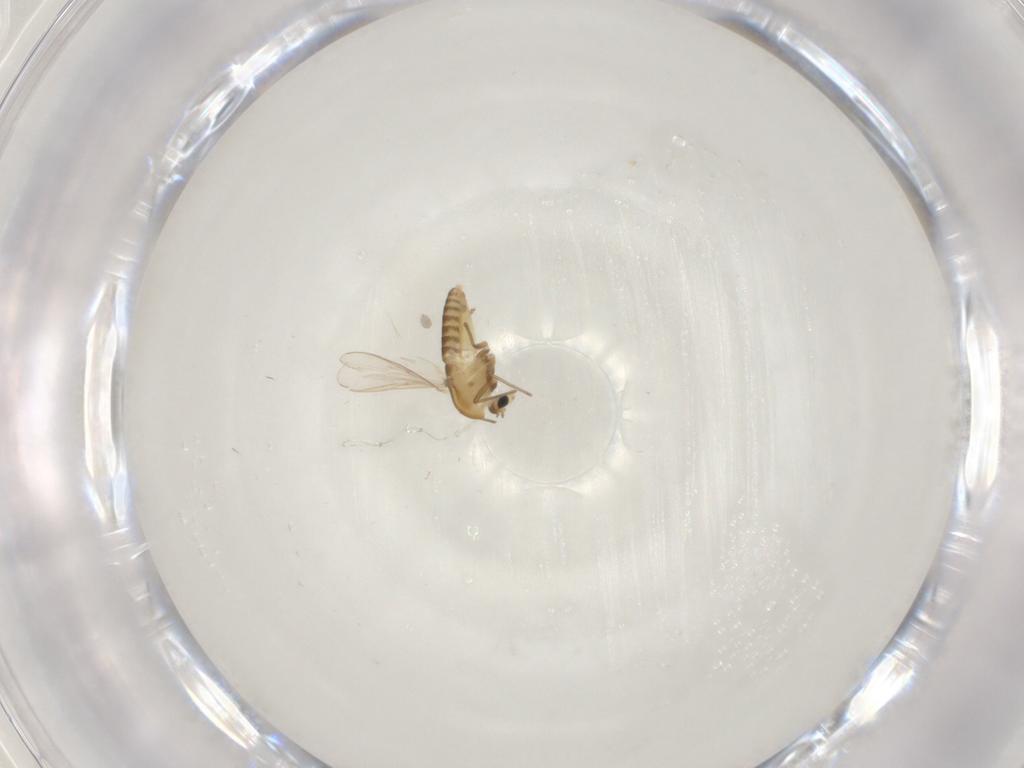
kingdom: Animalia
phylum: Arthropoda
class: Insecta
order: Diptera
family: Chironomidae
